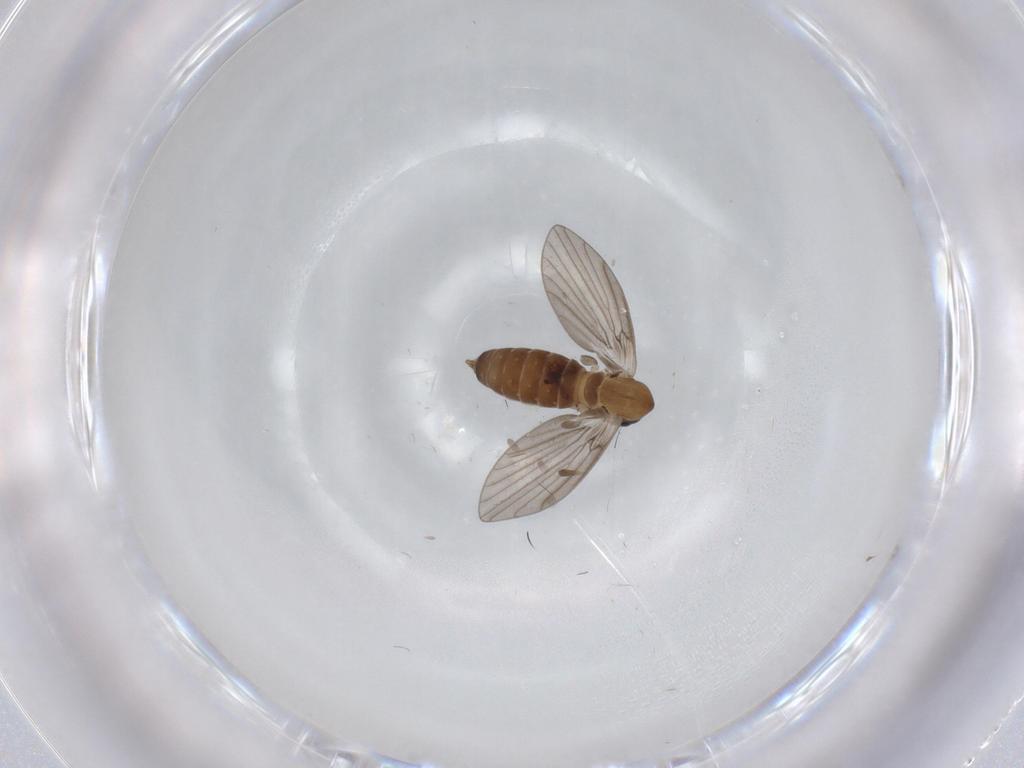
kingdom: Animalia
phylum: Arthropoda
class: Insecta
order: Diptera
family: Cecidomyiidae
